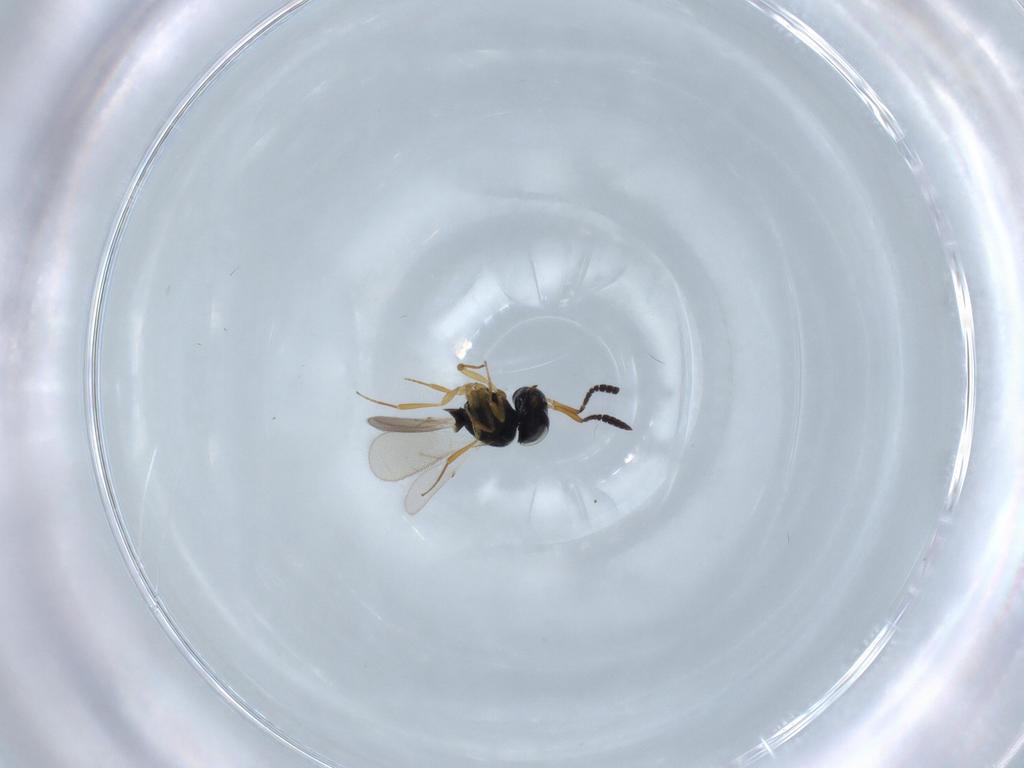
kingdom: Animalia
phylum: Arthropoda
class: Insecta
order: Hymenoptera
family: Scelionidae
